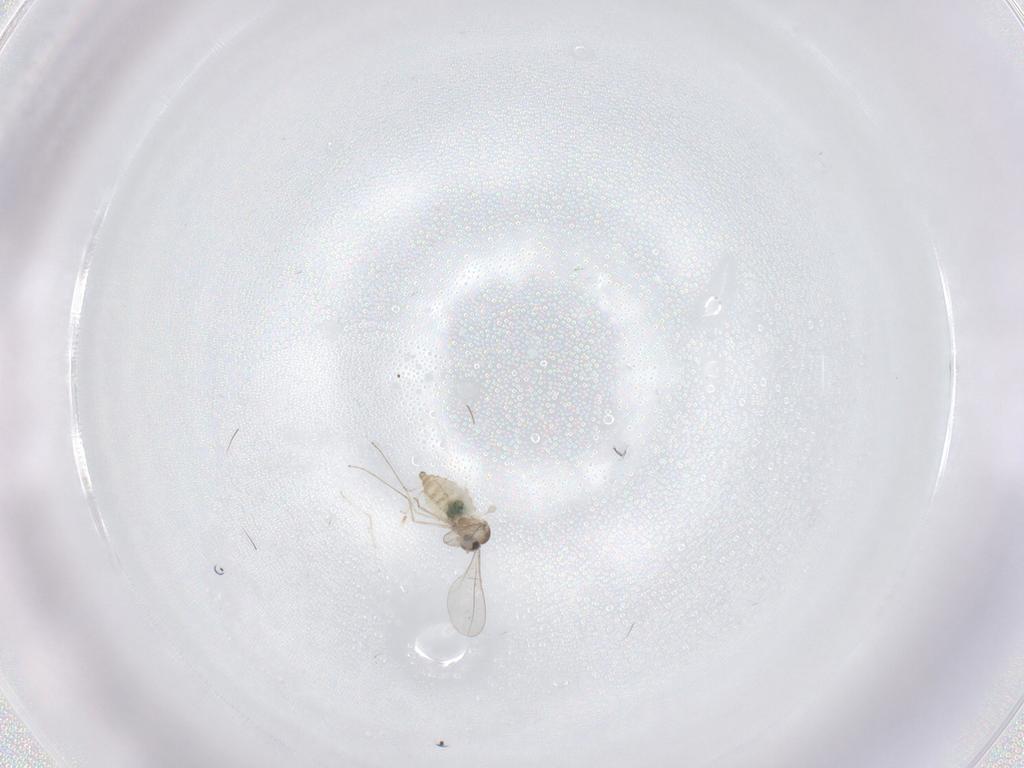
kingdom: Animalia
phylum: Arthropoda
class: Insecta
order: Diptera
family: Cecidomyiidae
